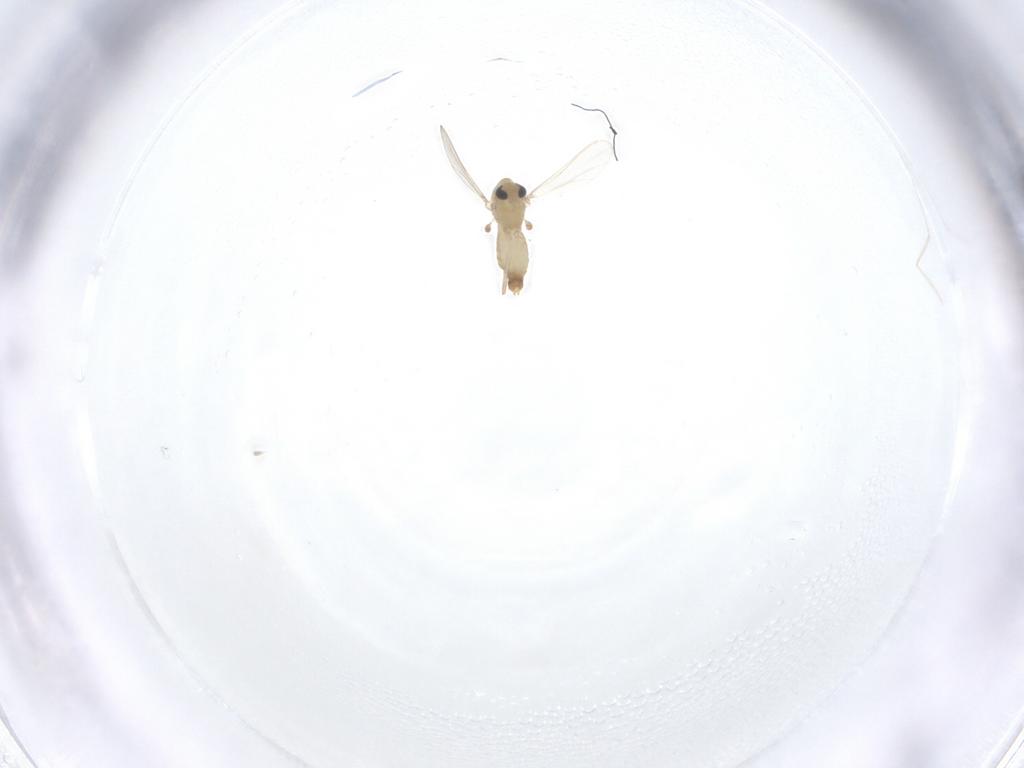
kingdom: Animalia
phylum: Arthropoda
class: Insecta
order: Diptera
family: Chironomidae
